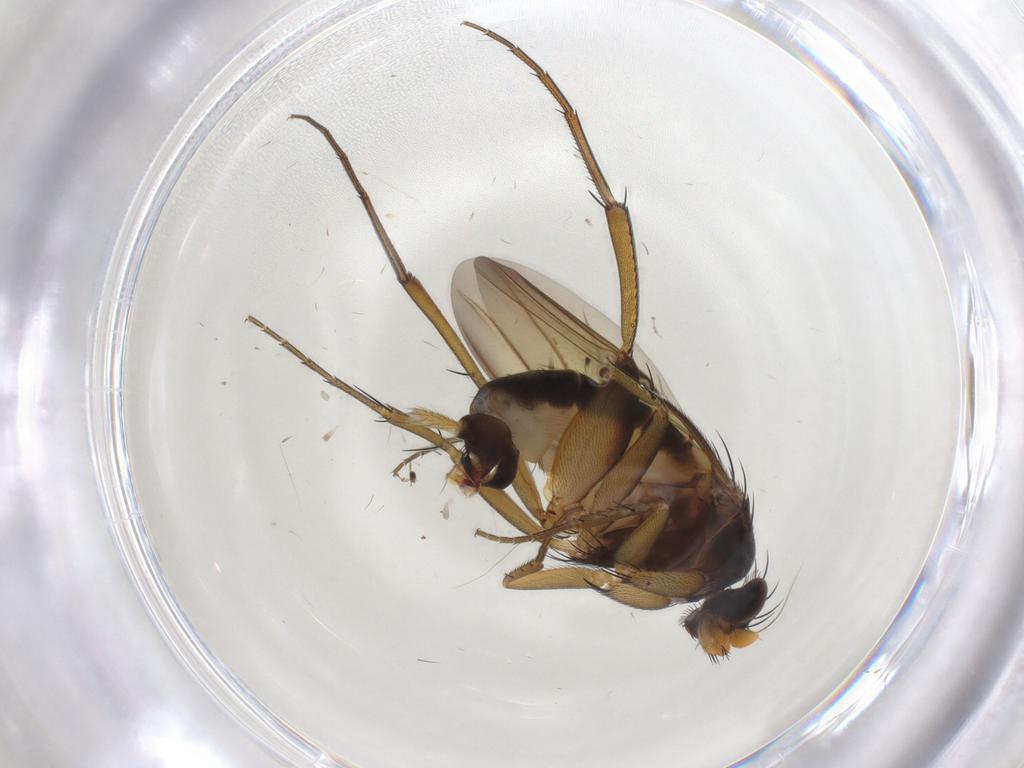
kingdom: Animalia
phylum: Arthropoda
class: Insecta
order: Diptera
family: Phoridae
